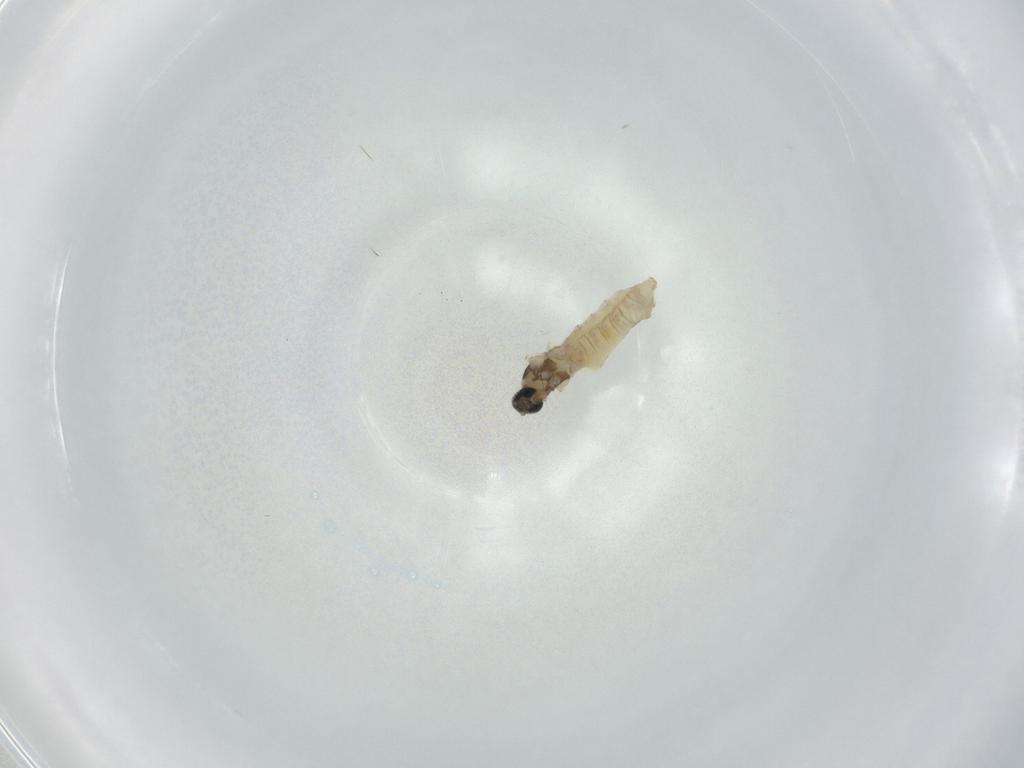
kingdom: Animalia
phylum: Arthropoda
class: Insecta
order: Diptera
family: Cecidomyiidae
